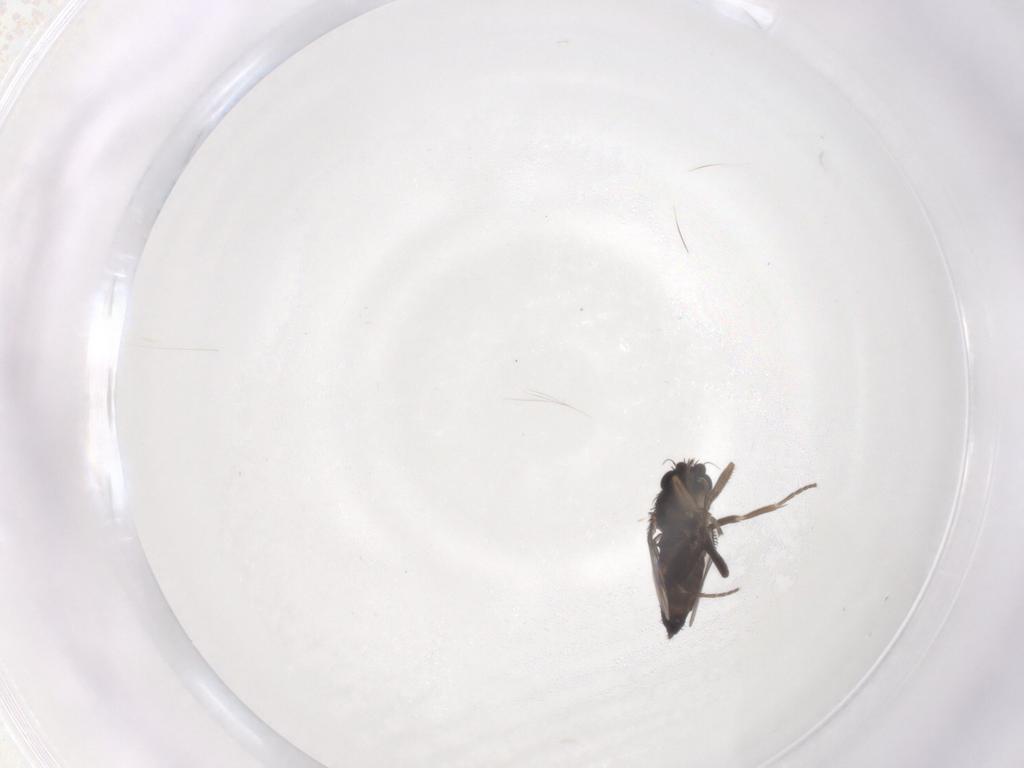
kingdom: Animalia
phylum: Arthropoda
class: Insecta
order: Diptera
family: Phoridae
